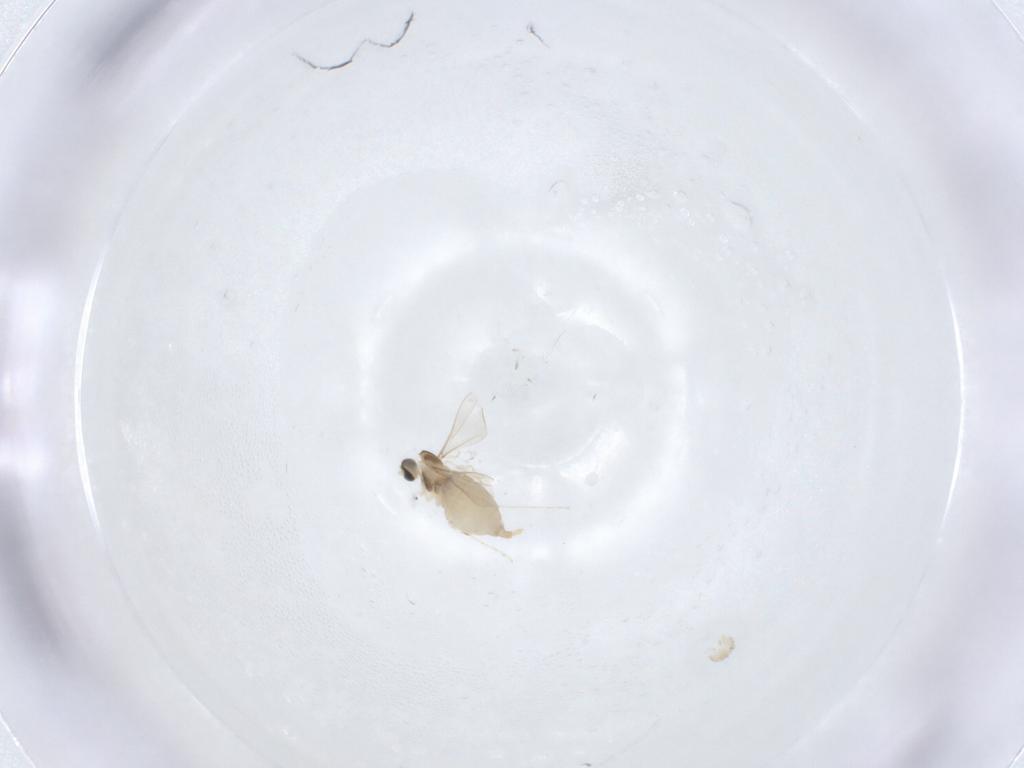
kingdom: Animalia
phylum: Arthropoda
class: Insecta
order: Diptera
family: Cecidomyiidae
